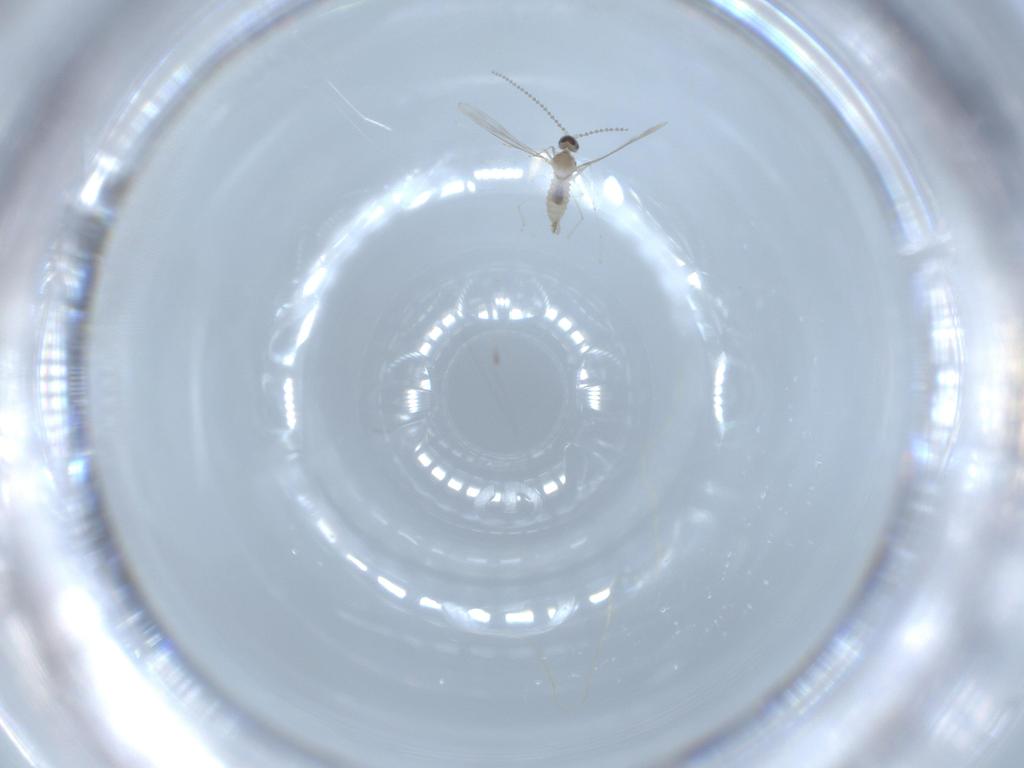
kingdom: Animalia
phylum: Arthropoda
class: Insecta
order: Diptera
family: Cecidomyiidae
